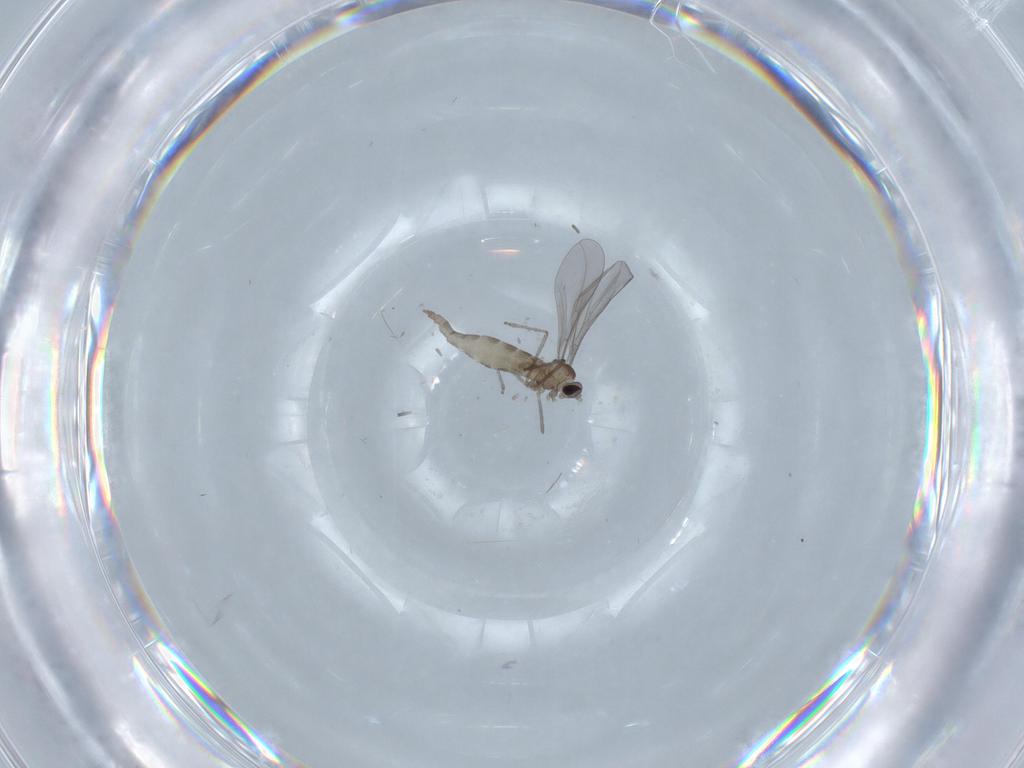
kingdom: Animalia
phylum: Arthropoda
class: Insecta
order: Diptera
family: Cecidomyiidae
